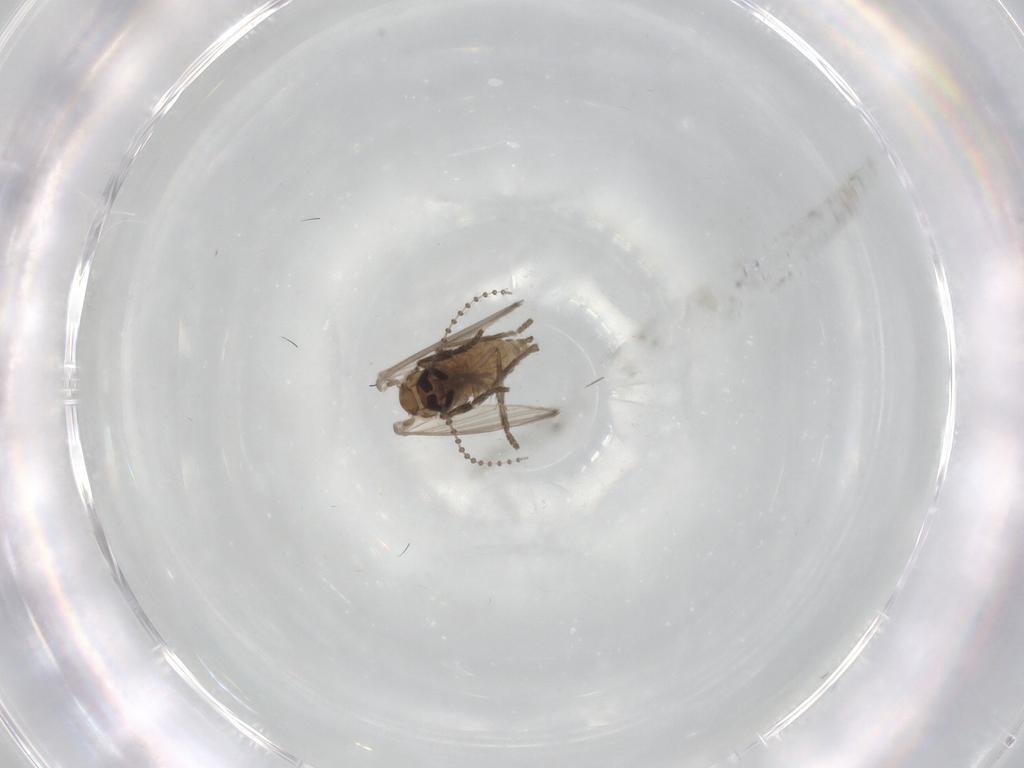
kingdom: Animalia
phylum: Arthropoda
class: Insecta
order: Diptera
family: Psychodidae
